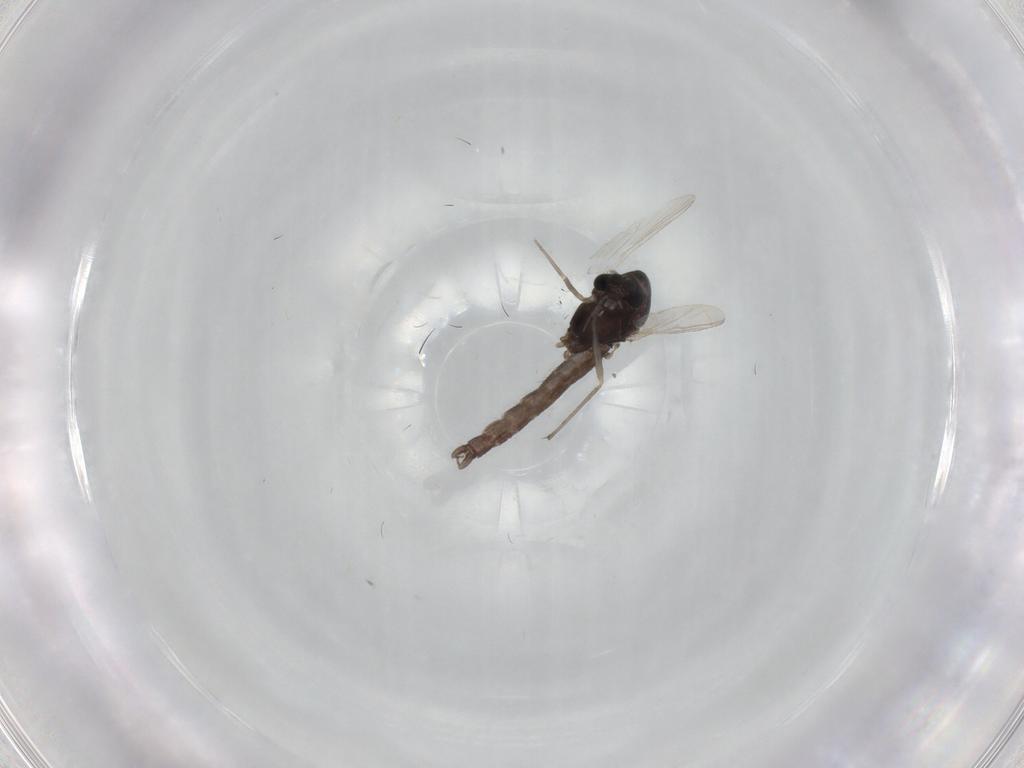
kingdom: Animalia
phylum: Arthropoda
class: Insecta
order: Diptera
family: Chironomidae
